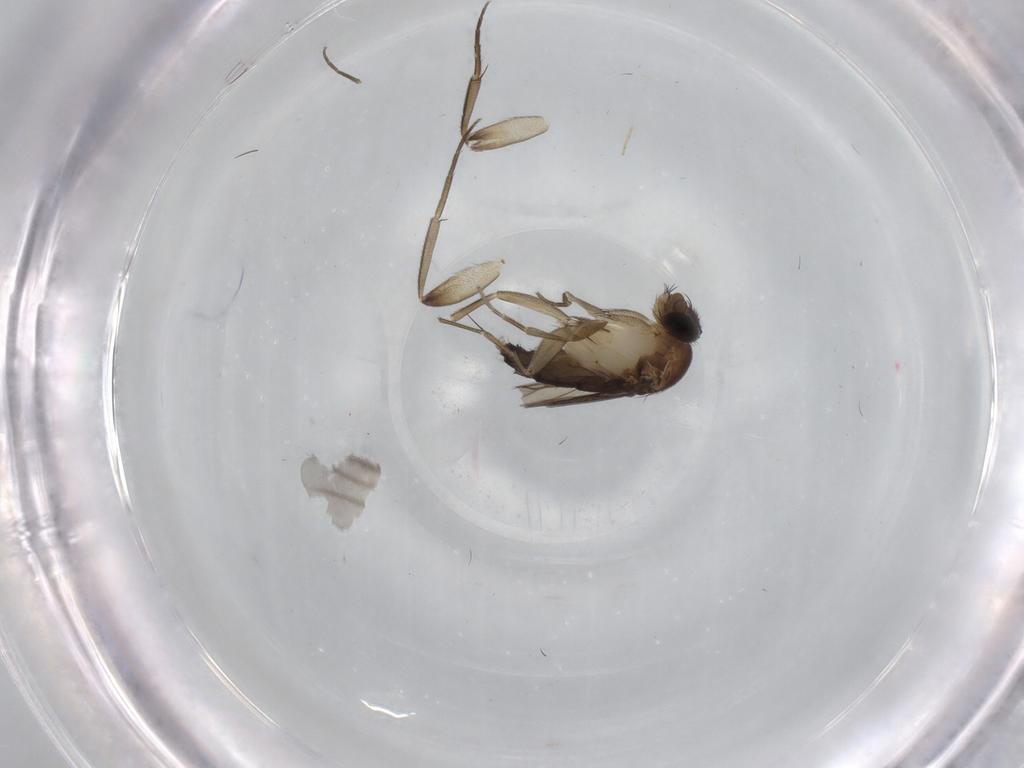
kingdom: Animalia
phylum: Arthropoda
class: Insecta
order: Diptera
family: Phoridae
